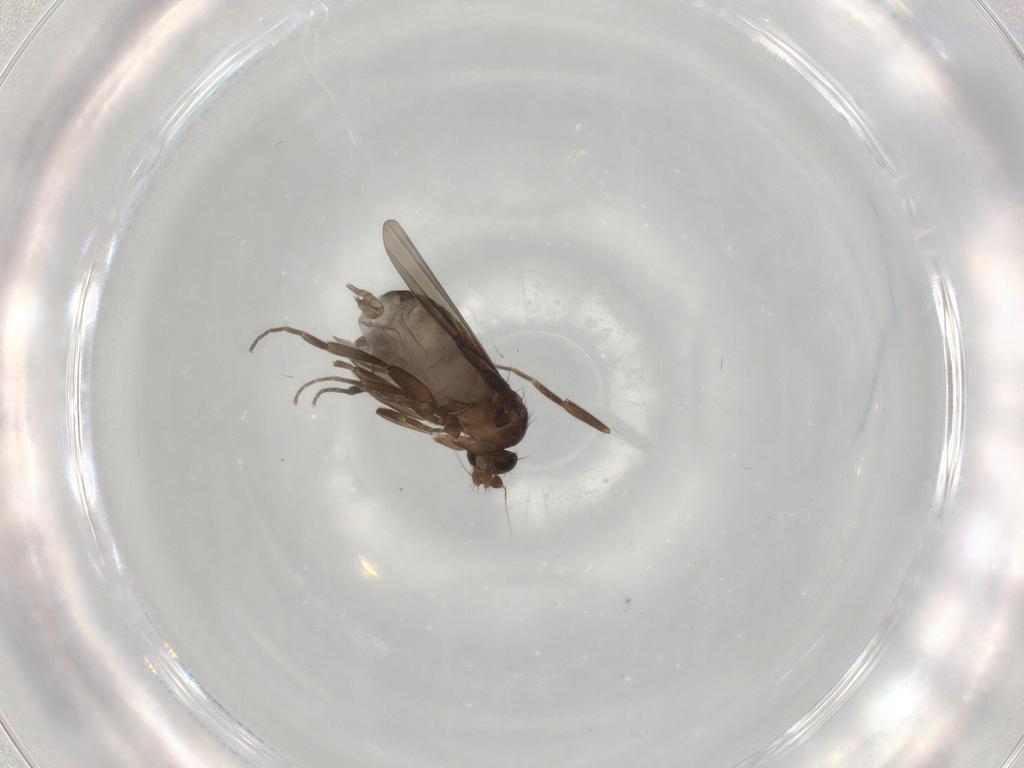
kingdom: Animalia
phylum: Arthropoda
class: Insecta
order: Diptera
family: Phoridae
